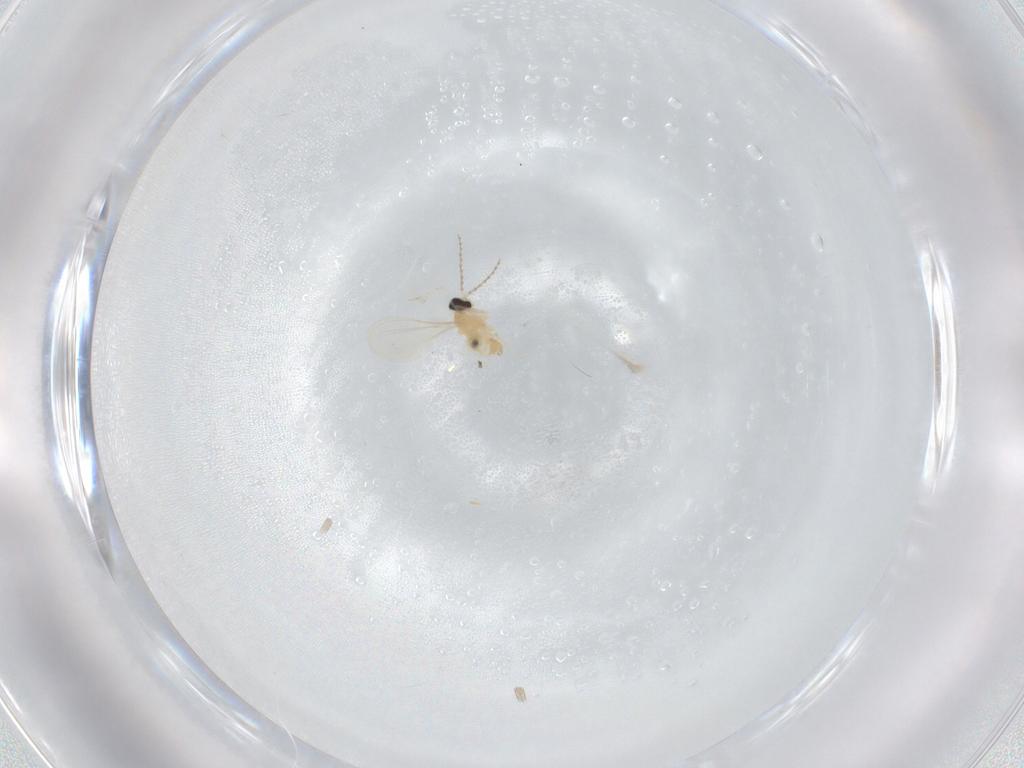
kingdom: Animalia
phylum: Arthropoda
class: Insecta
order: Diptera
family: Cecidomyiidae
